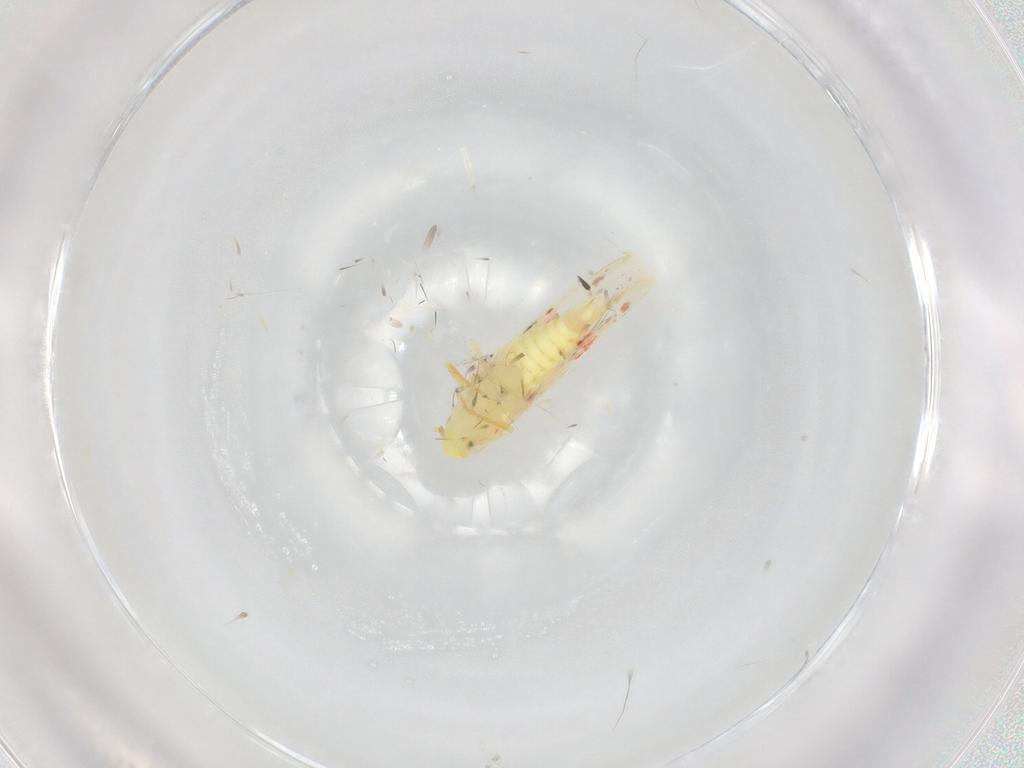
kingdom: Animalia
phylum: Arthropoda
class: Insecta
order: Hemiptera
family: Cicadellidae
